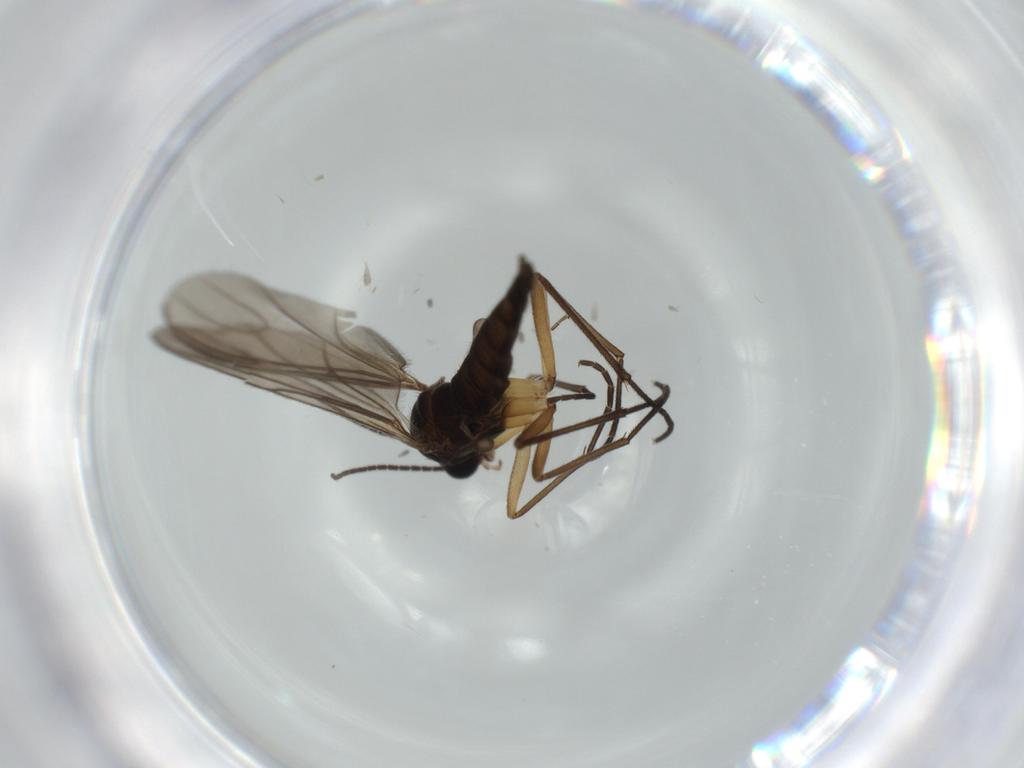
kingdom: Animalia
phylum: Arthropoda
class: Insecta
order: Diptera
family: Sciaridae
